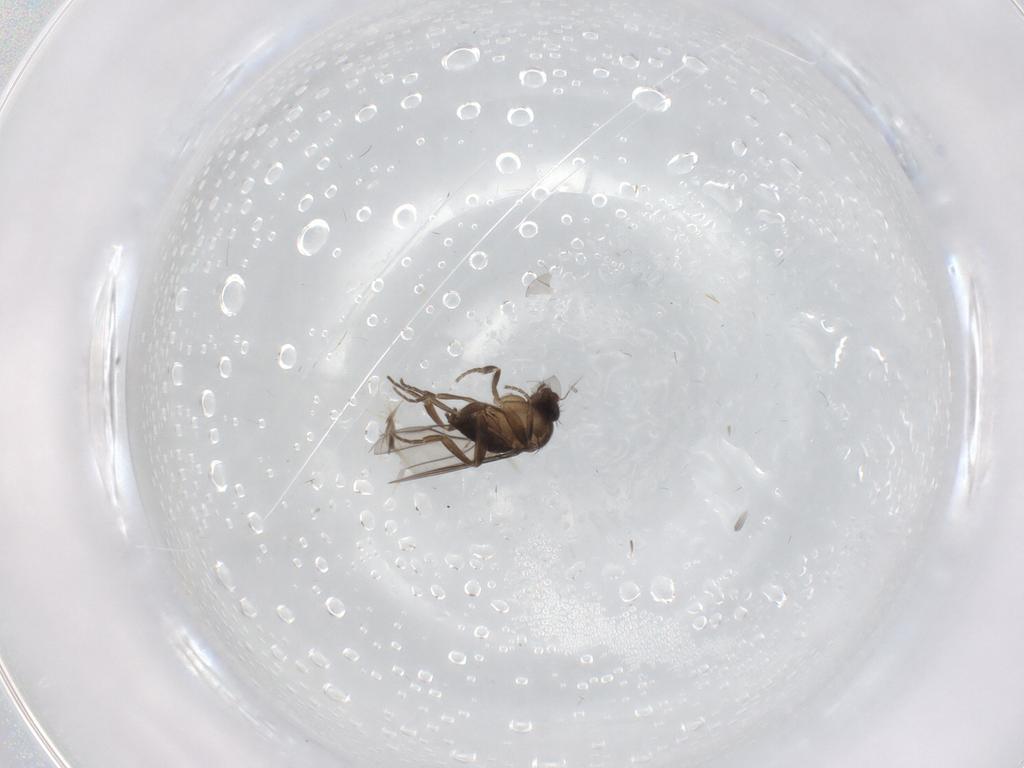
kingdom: Animalia
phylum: Arthropoda
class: Insecta
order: Diptera
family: Phoridae
